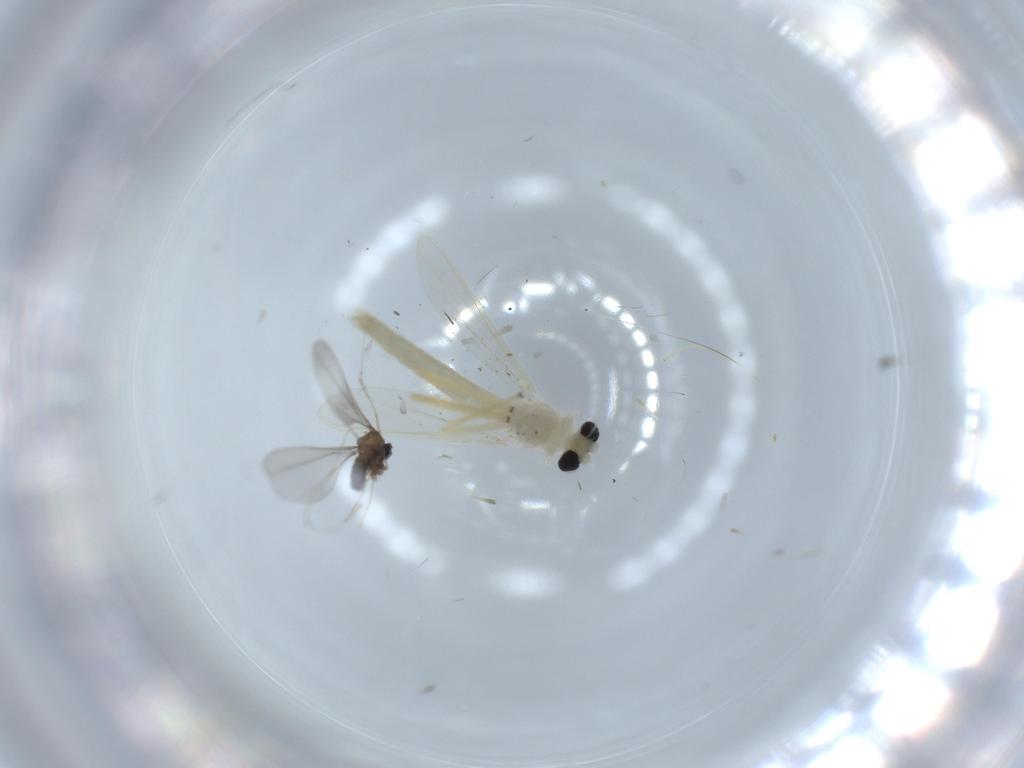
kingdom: Animalia
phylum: Arthropoda
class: Insecta
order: Diptera
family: Chironomidae
